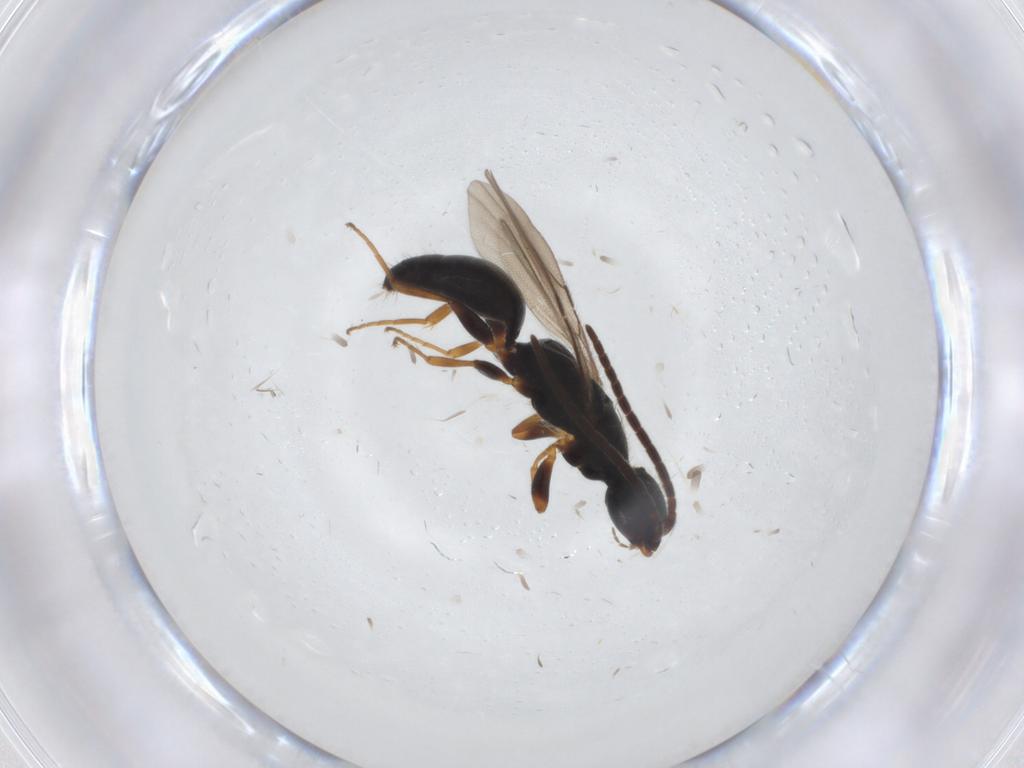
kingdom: Animalia
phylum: Arthropoda
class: Insecta
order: Hymenoptera
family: Bethylidae
